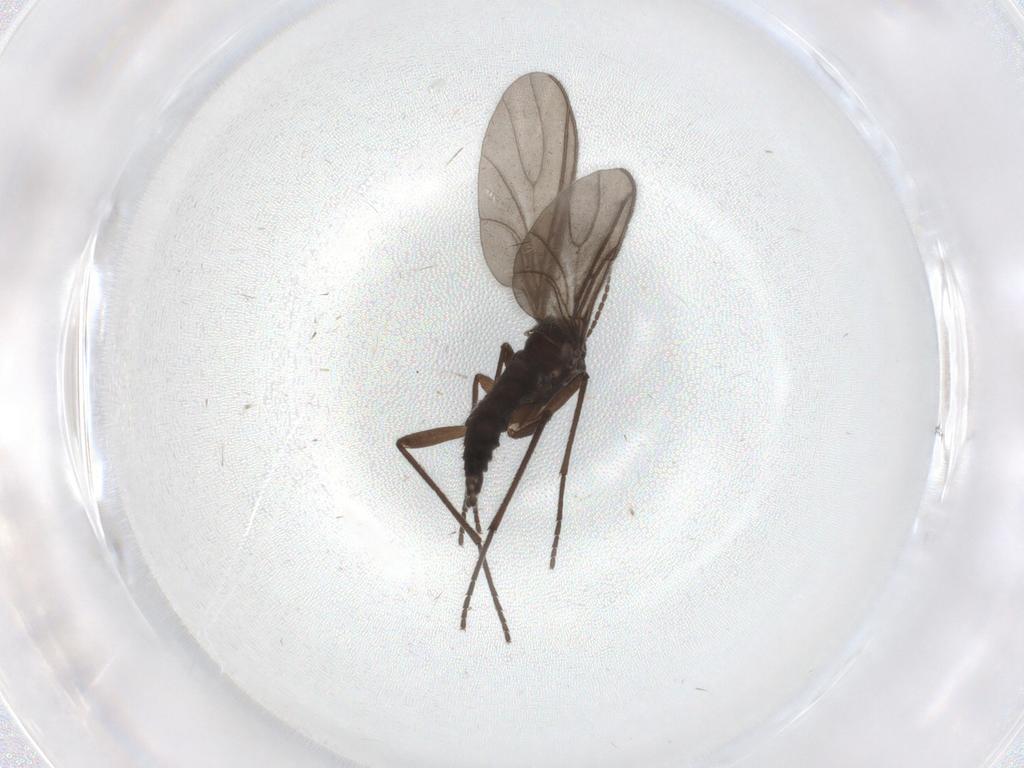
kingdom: Animalia
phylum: Arthropoda
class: Insecta
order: Diptera
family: Sciaridae
